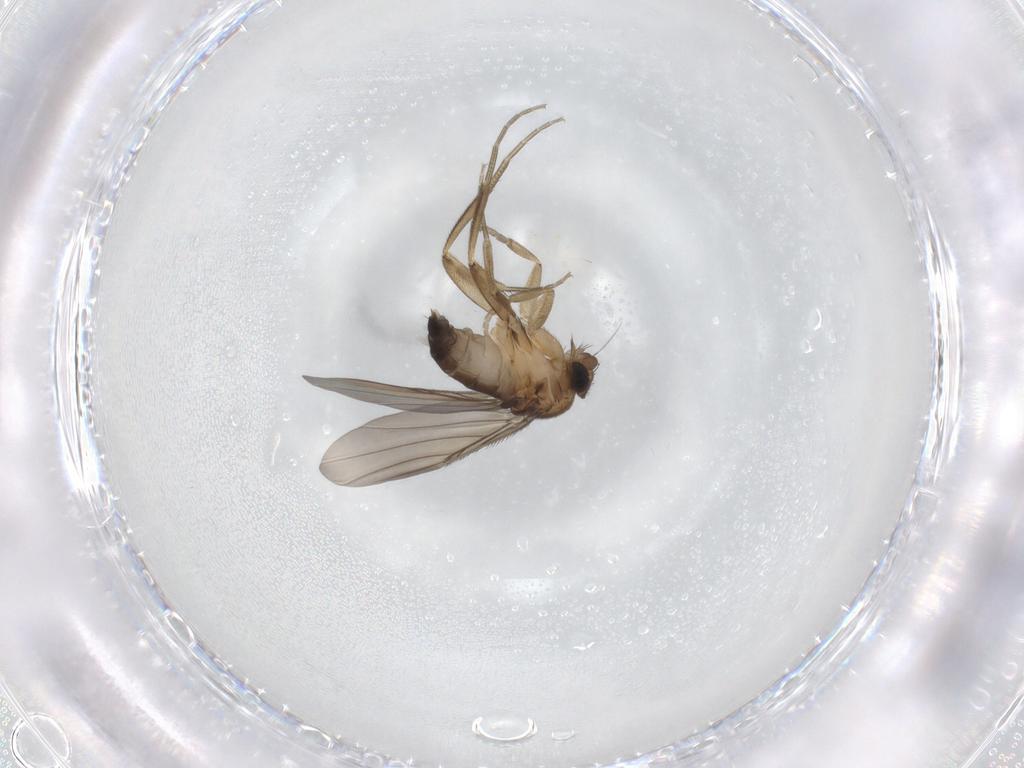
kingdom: Animalia
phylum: Arthropoda
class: Insecta
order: Diptera
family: Phoridae
